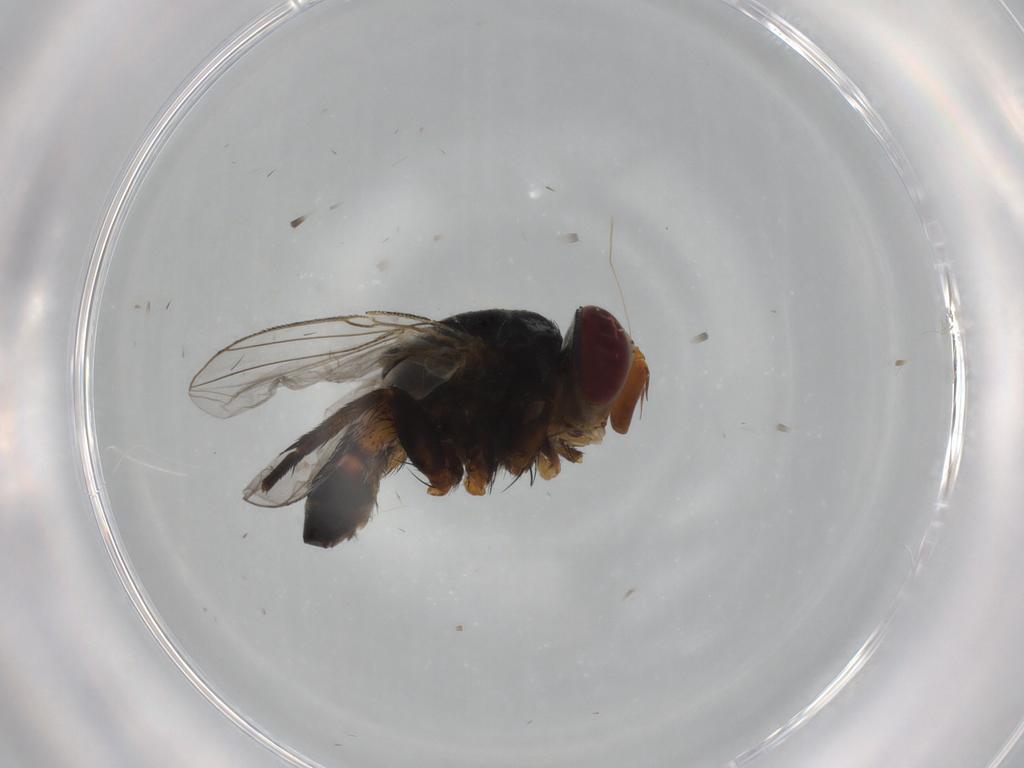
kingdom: Animalia
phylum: Arthropoda
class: Insecta
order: Diptera
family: Calliphoridae
